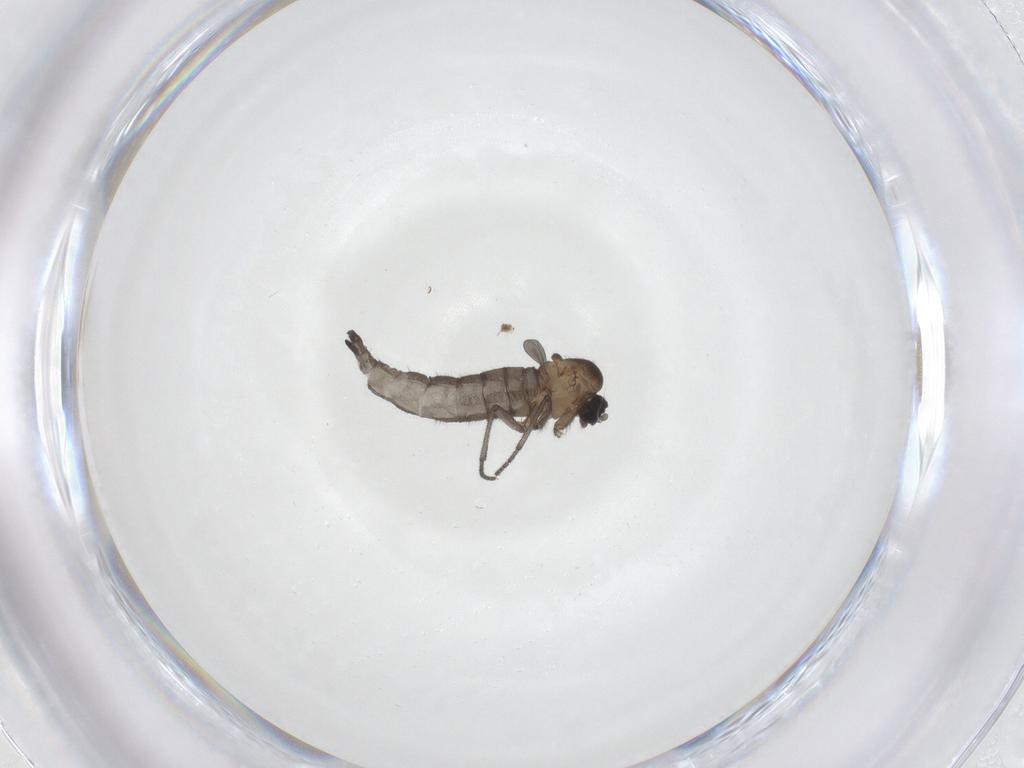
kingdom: Animalia
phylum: Arthropoda
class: Insecta
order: Diptera
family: Sciaridae
